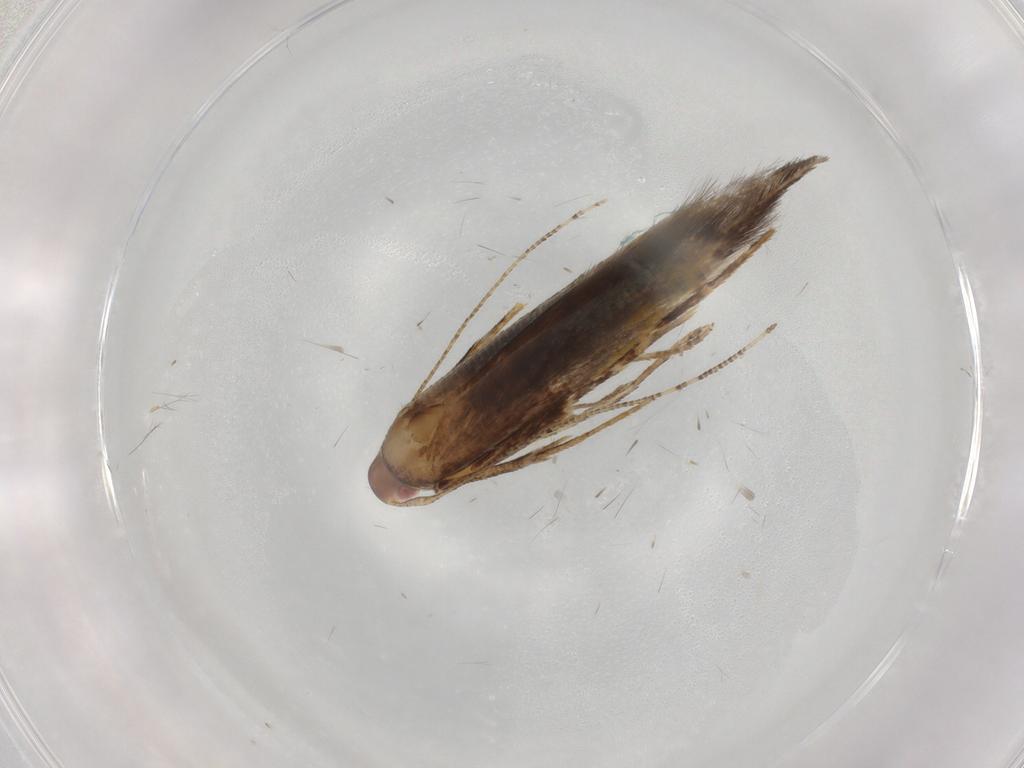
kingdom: Animalia
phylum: Arthropoda
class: Insecta
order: Lepidoptera
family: Cosmopterigidae
